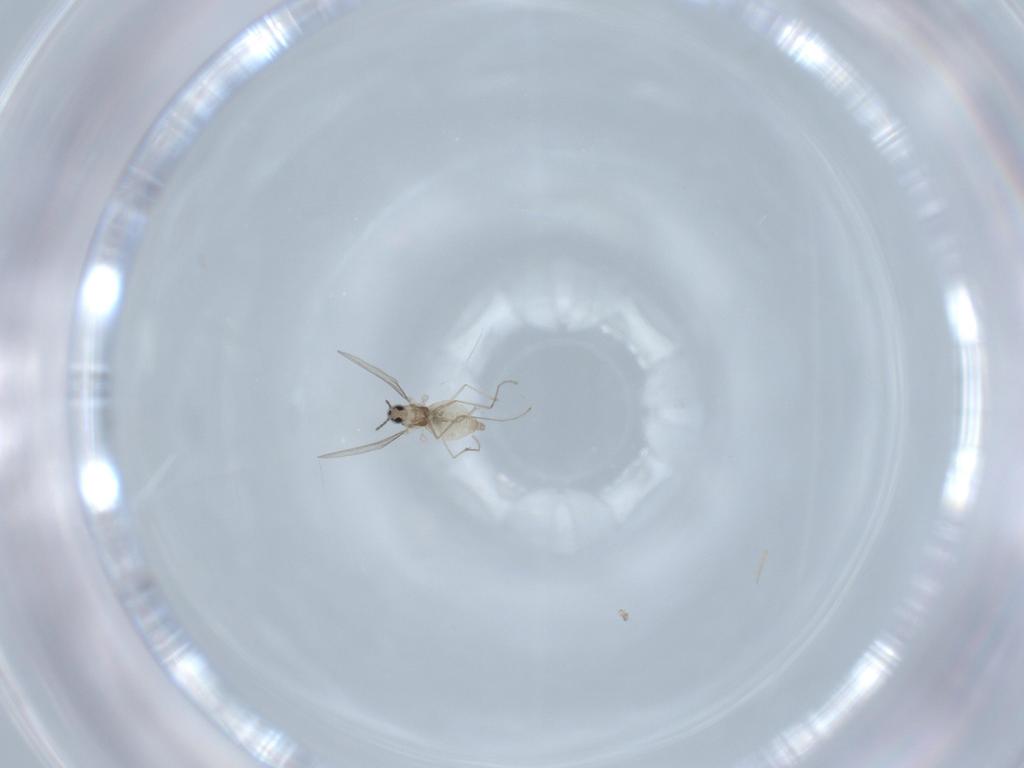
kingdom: Animalia
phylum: Arthropoda
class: Insecta
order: Diptera
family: Cecidomyiidae
